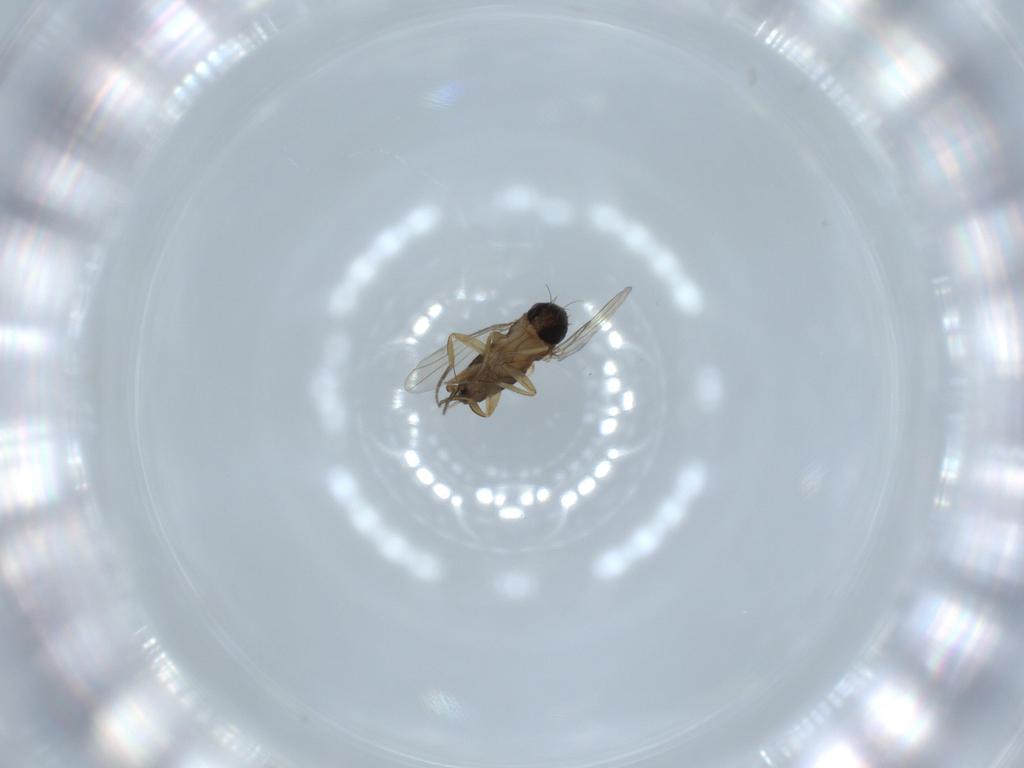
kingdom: Animalia
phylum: Arthropoda
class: Insecta
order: Diptera
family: Phoridae
